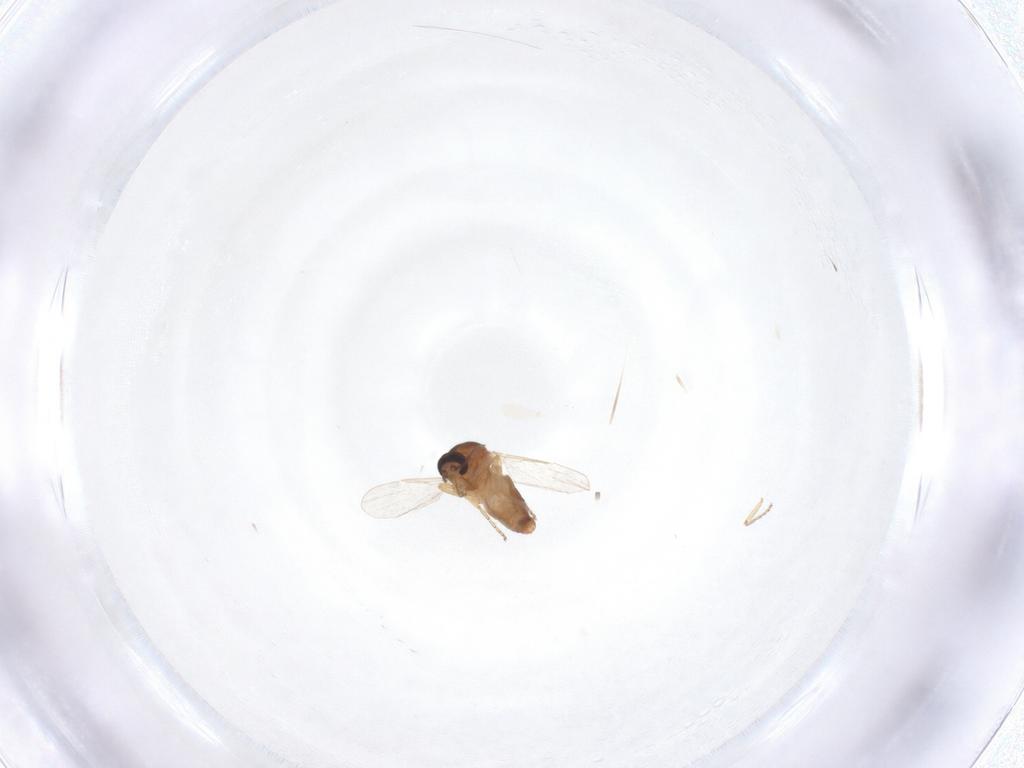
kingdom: Animalia
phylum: Arthropoda
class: Insecta
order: Diptera
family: Ceratopogonidae
